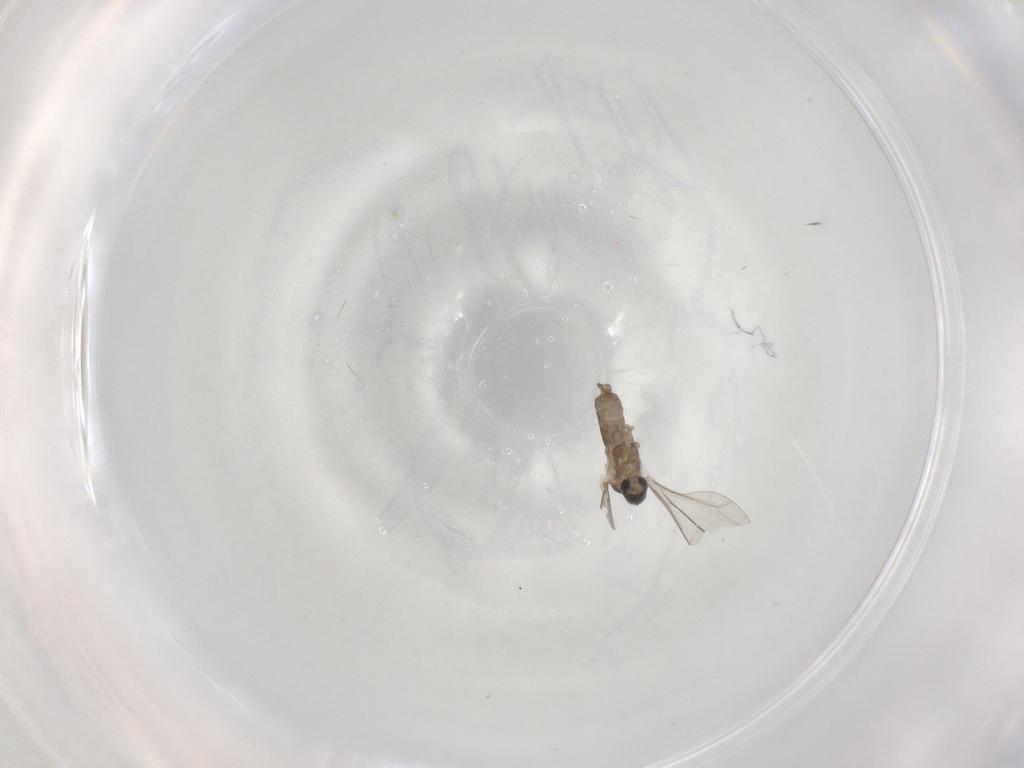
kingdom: Animalia
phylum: Arthropoda
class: Insecta
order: Diptera
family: Cecidomyiidae
